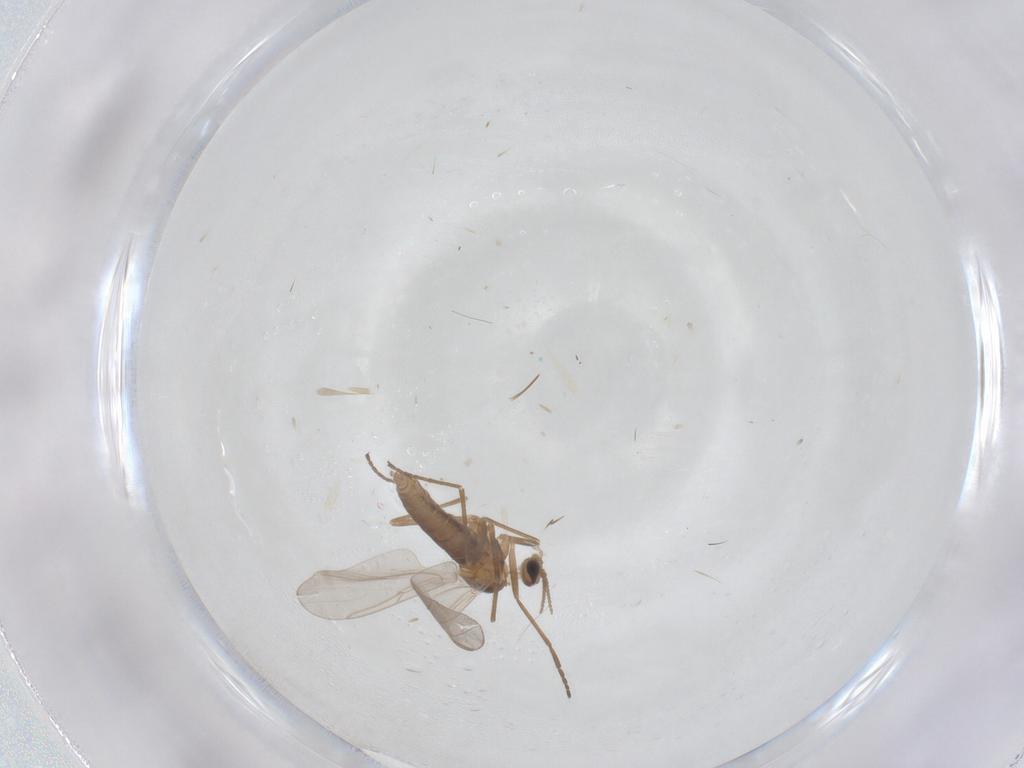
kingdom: Animalia
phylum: Arthropoda
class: Insecta
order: Diptera
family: Cecidomyiidae
